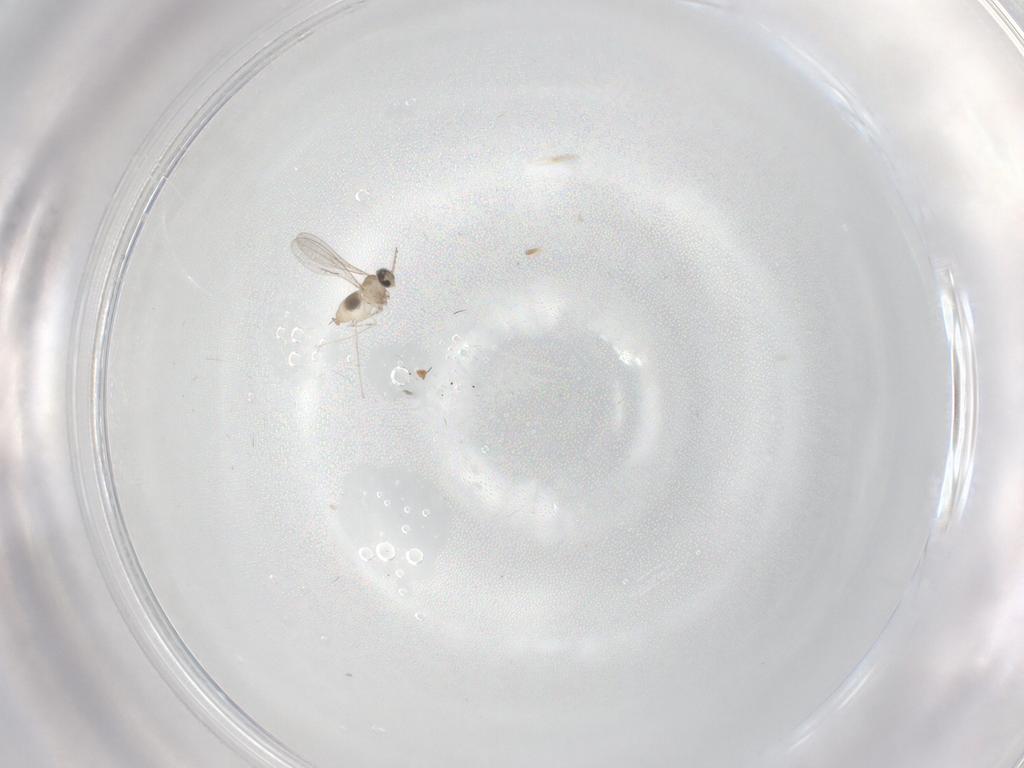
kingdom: Animalia
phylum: Arthropoda
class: Insecta
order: Diptera
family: Cecidomyiidae
